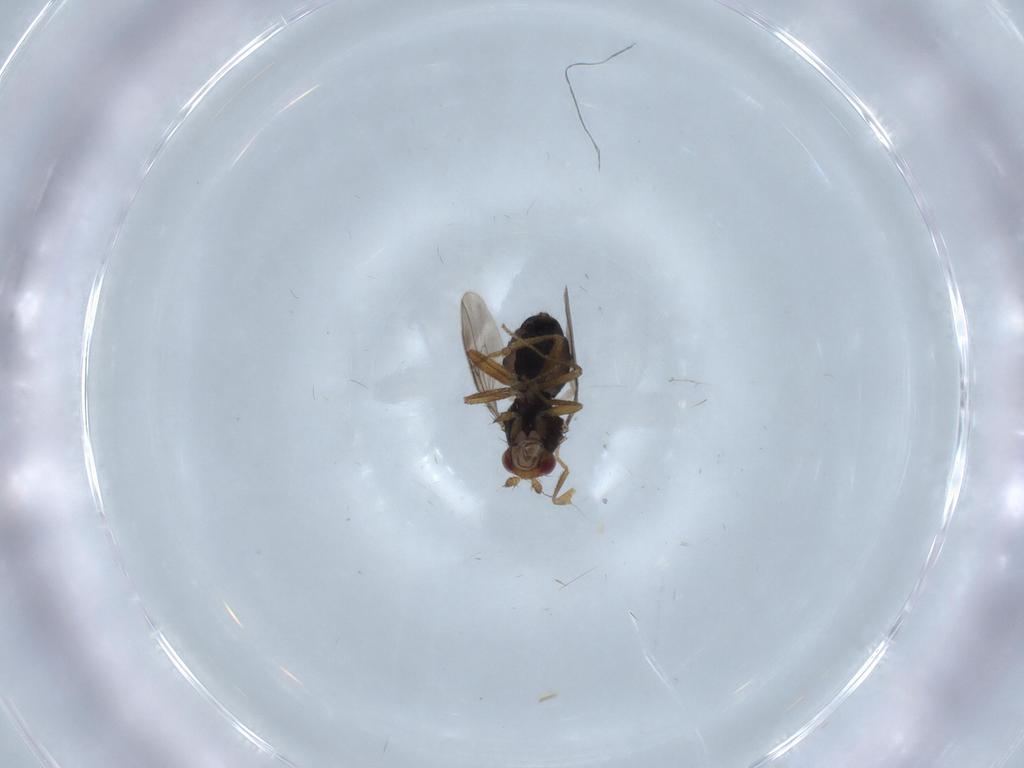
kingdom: Animalia
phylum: Arthropoda
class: Insecta
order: Diptera
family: Sphaeroceridae
